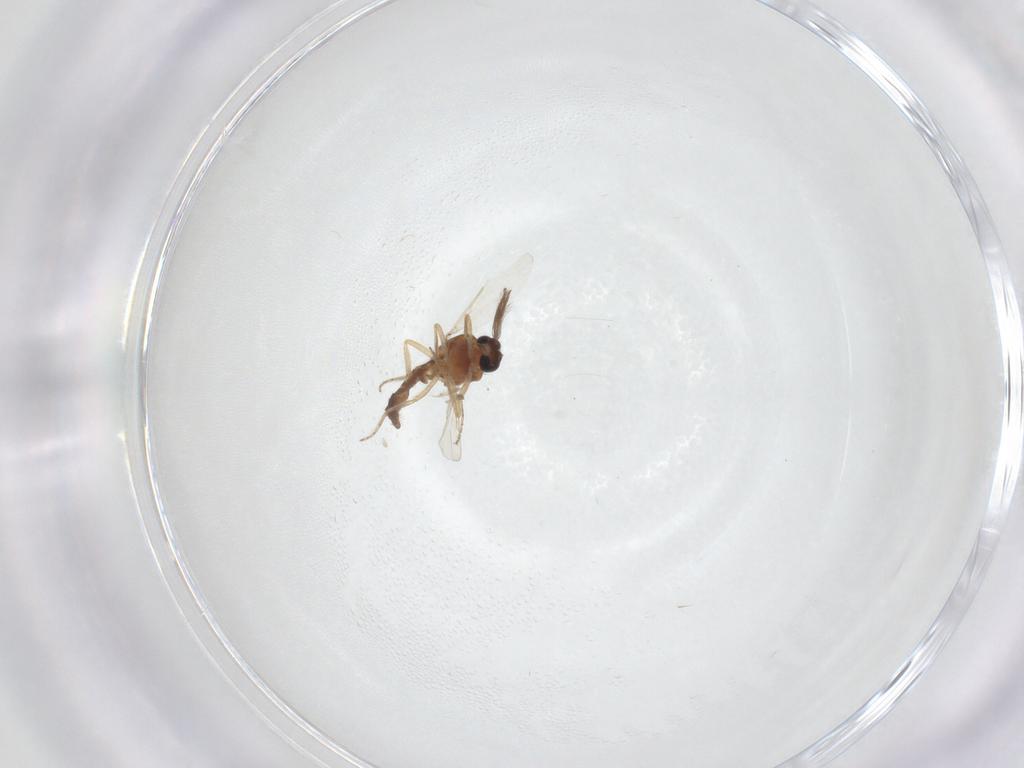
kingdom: Animalia
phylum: Arthropoda
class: Insecta
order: Diptera
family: Ceratopogonidae
